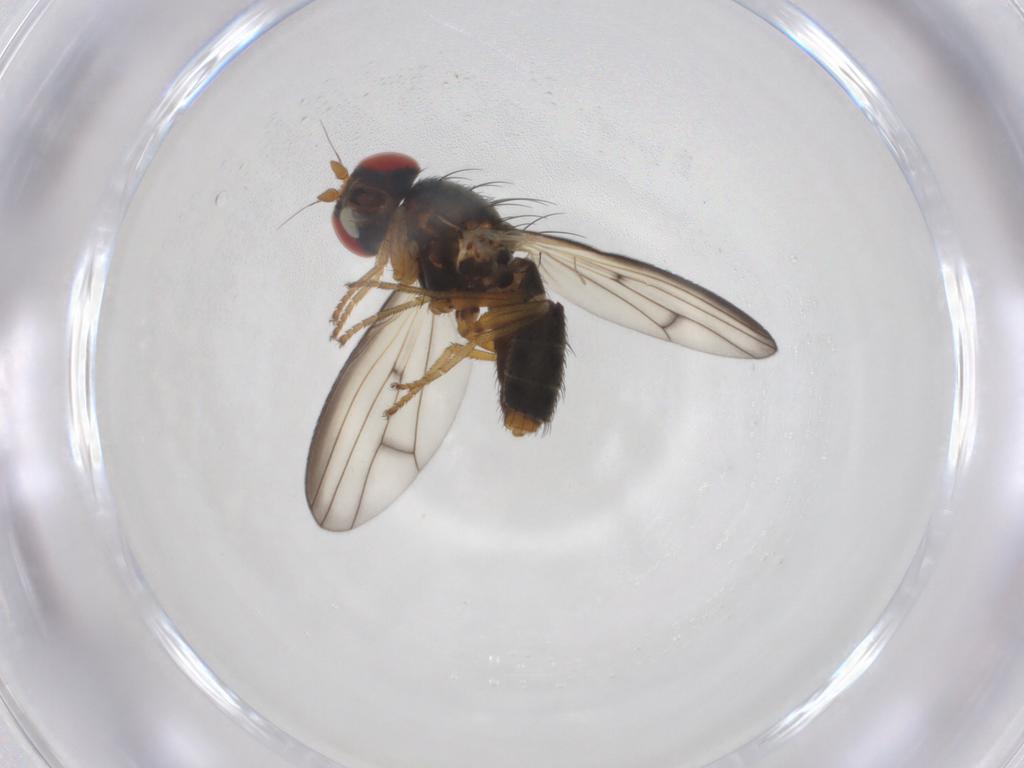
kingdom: Animalia
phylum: Arthropoda
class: Insecta
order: Diptera
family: Chamaemyiidae
